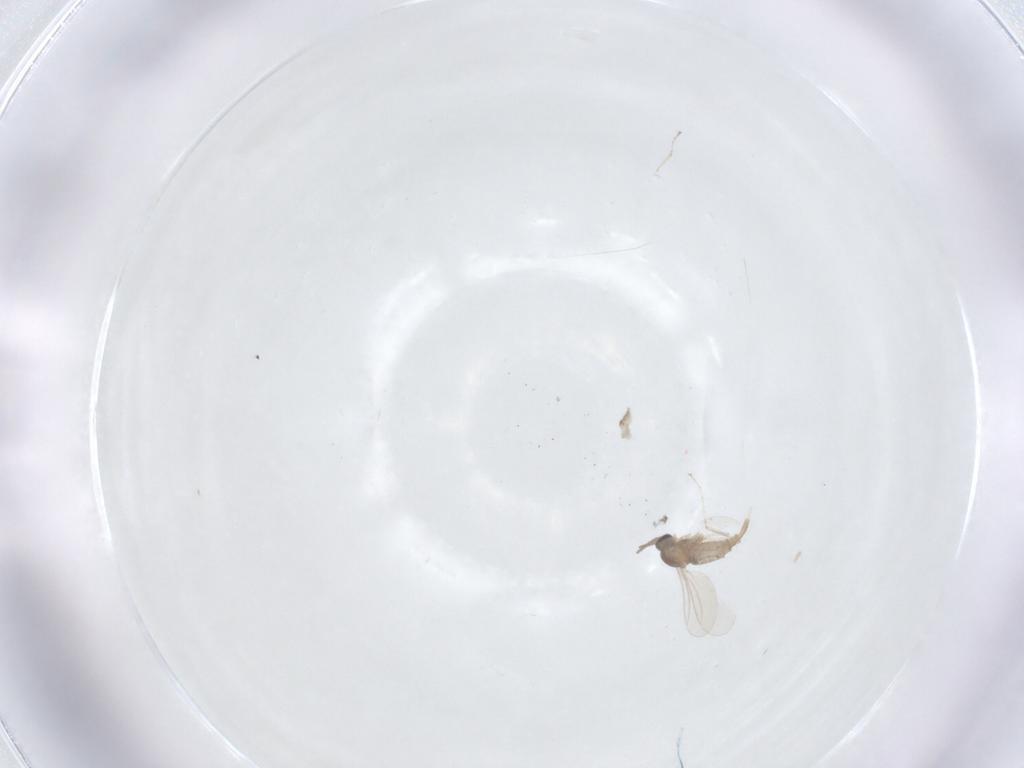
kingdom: Animalia
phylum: Arthropoda
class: Insecta
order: Diptera
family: Cecidomyiidae
